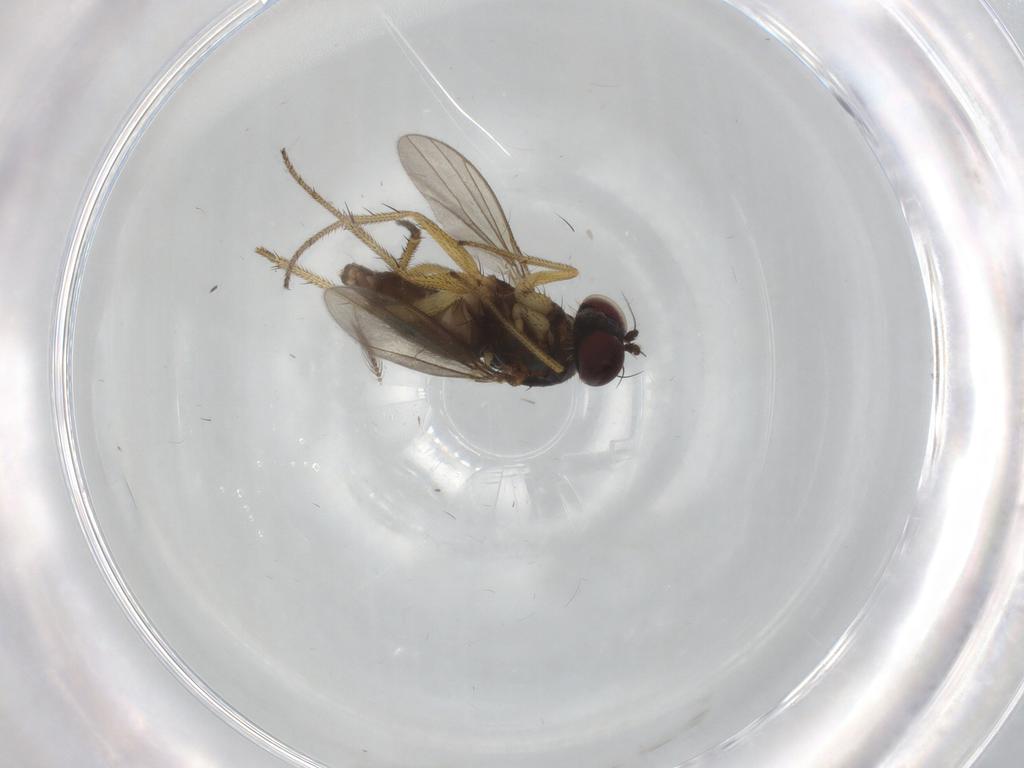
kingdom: Animalia
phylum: Arthropoda
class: Insecta
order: Diptera
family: Ceratopogonidae
